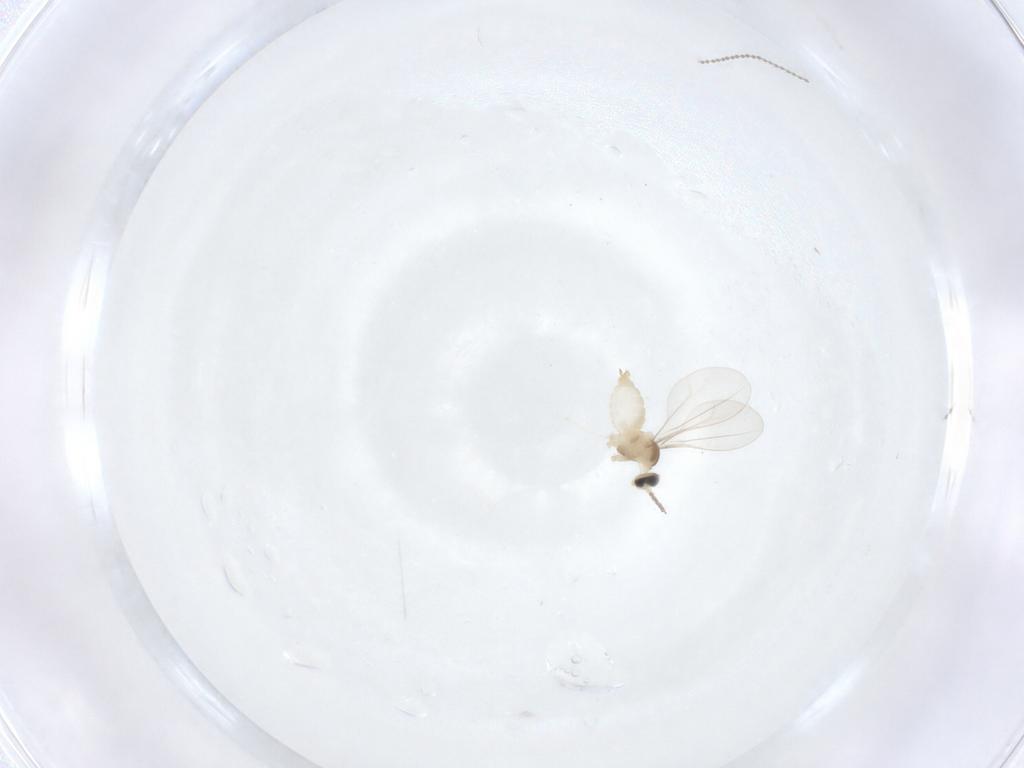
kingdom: Animalia
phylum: Arthropoda
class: Insecta
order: Diptera
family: Cecidomyiidae
